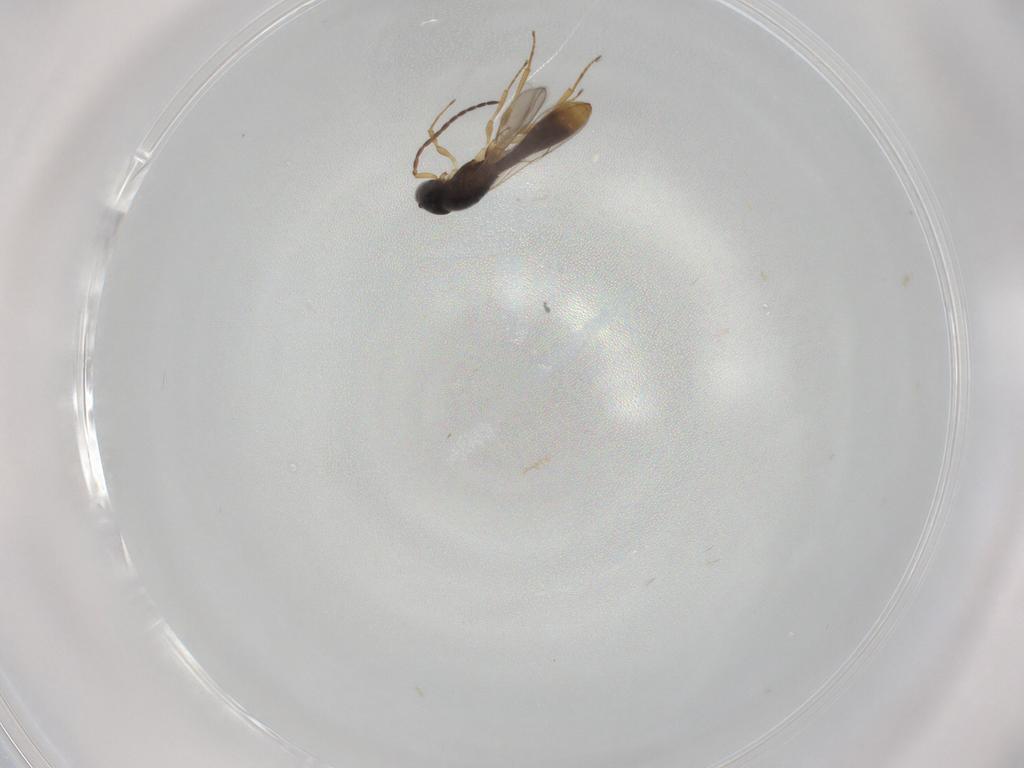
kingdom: Animalia
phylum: Arthropoda
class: Insecta
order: Hymenoptera
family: Scelionidae
